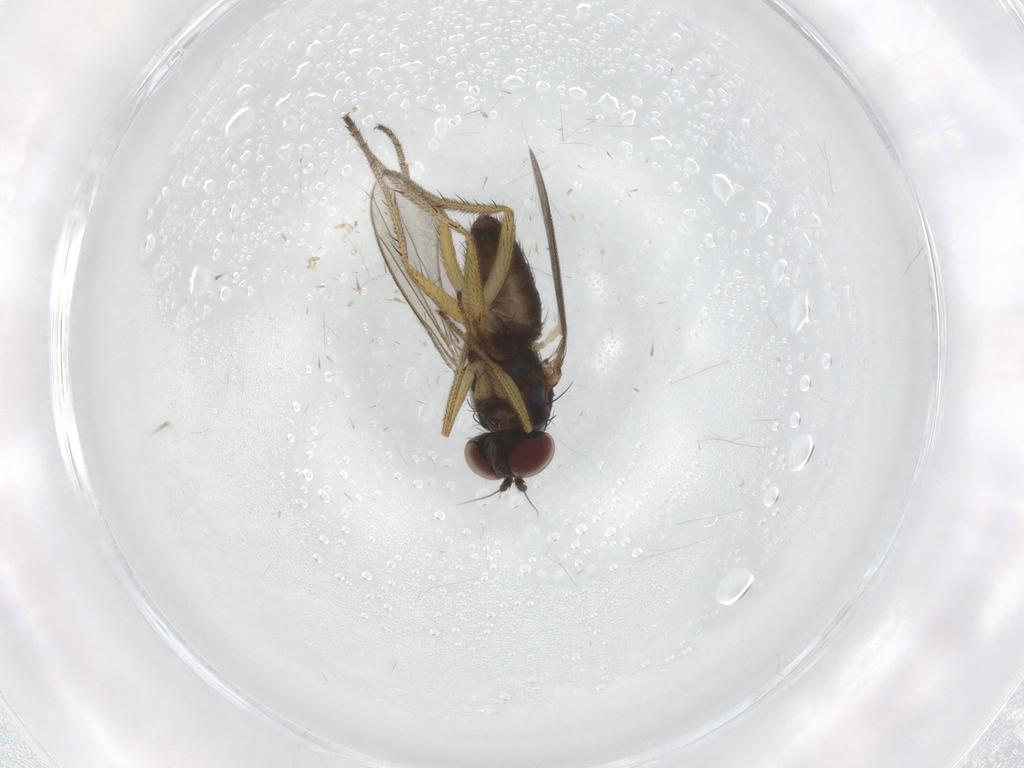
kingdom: Animalia
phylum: Arthropoda
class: Insecta
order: Diptera
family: Dolichopodidae
